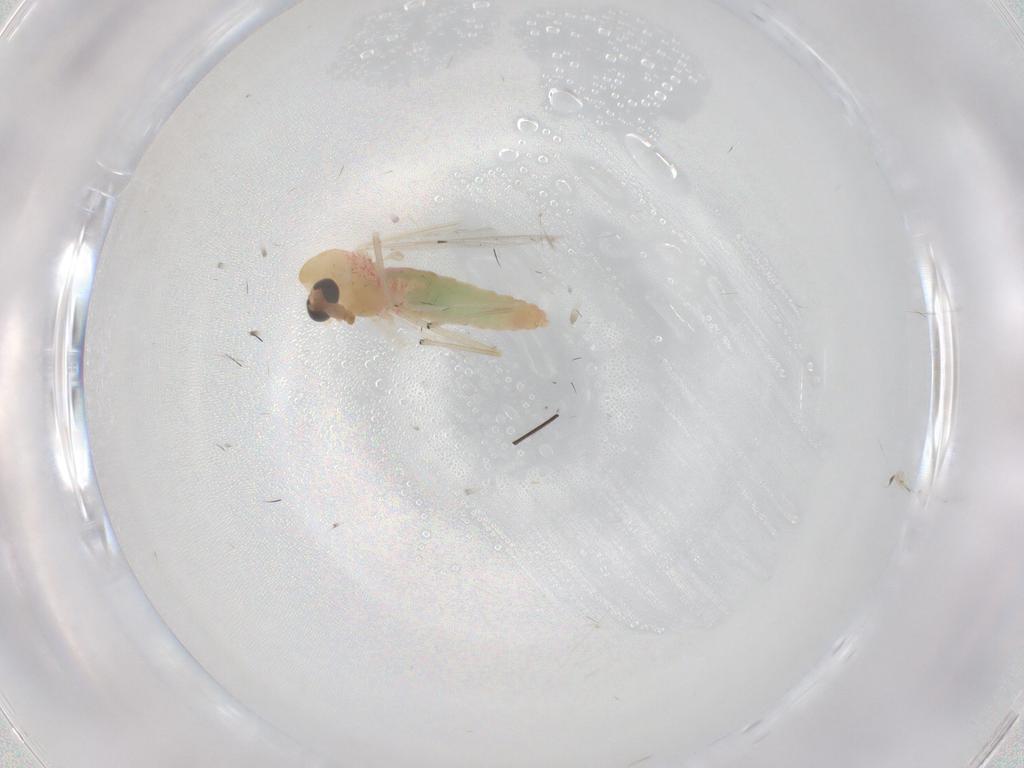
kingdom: Animalia
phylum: Arthropoda
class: Insecta
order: Diptera
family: Chironomidae
